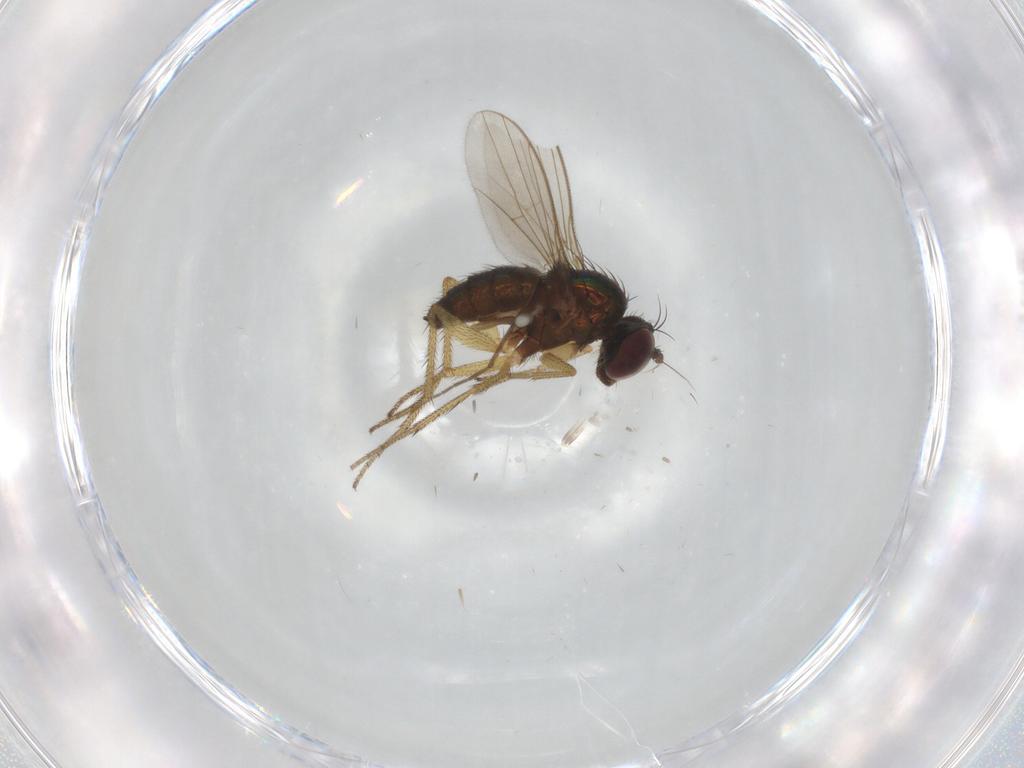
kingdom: Animalia
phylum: Arthropoda
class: Insecta
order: Diptera
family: Chironomidae
